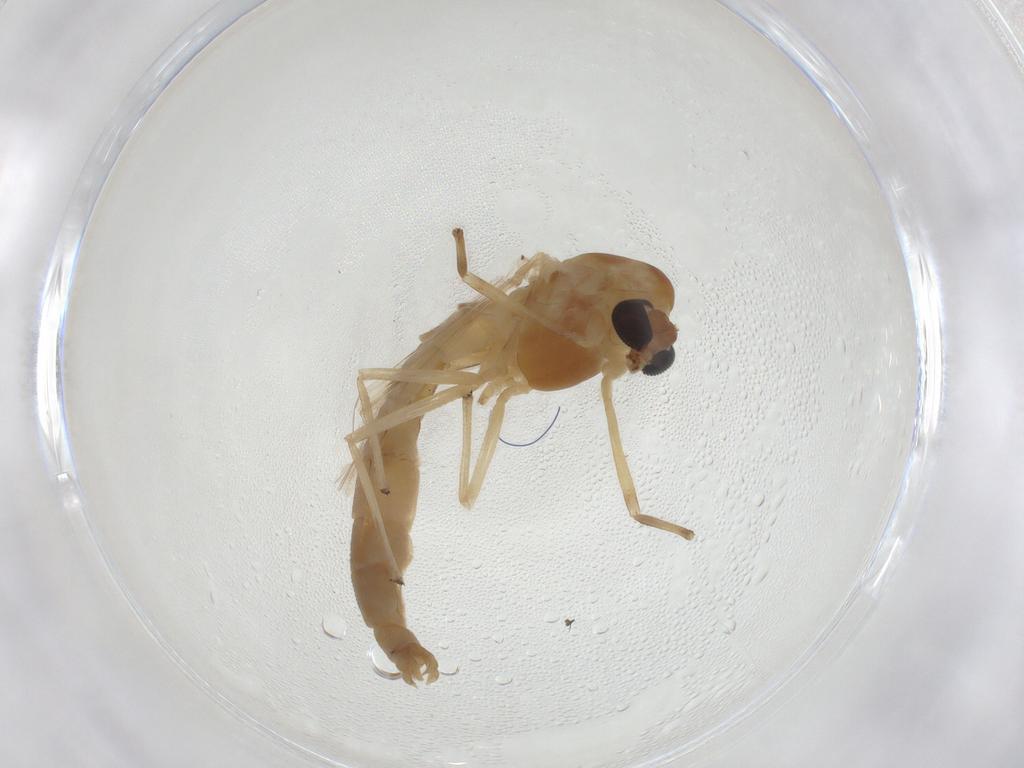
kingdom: Animalia
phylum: Arthropoda
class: Insecta
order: Diptera
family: Chironomidae
